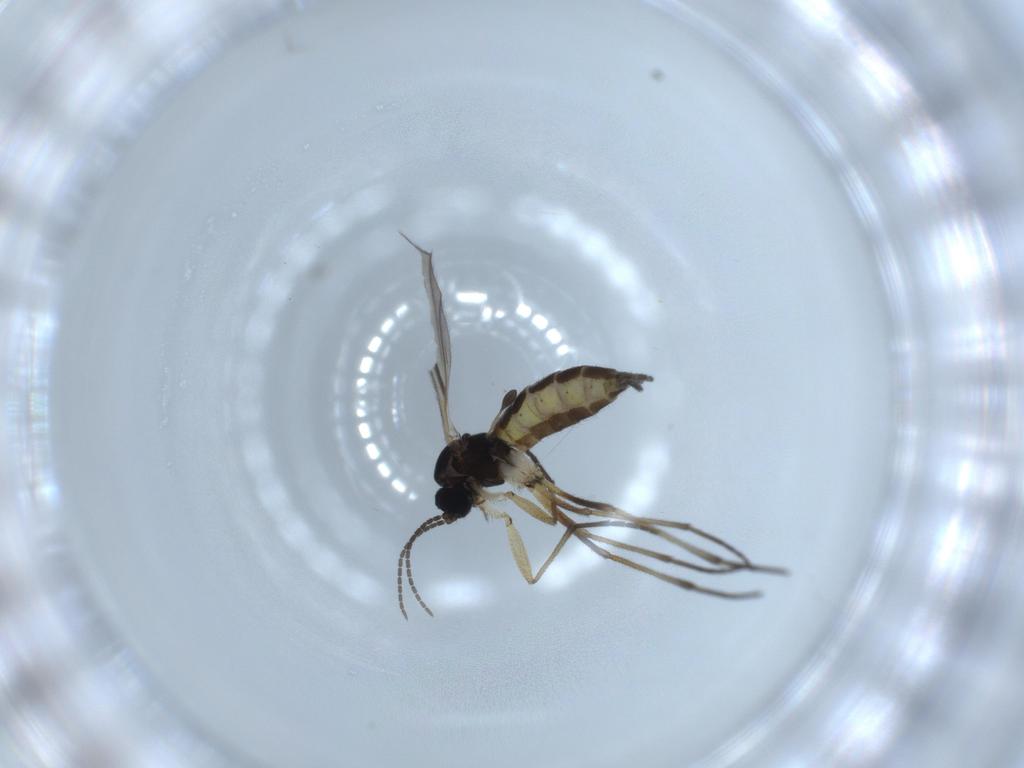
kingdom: Animalia
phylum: Arthropoda
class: Insecta
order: Diptera
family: Sciaridae
